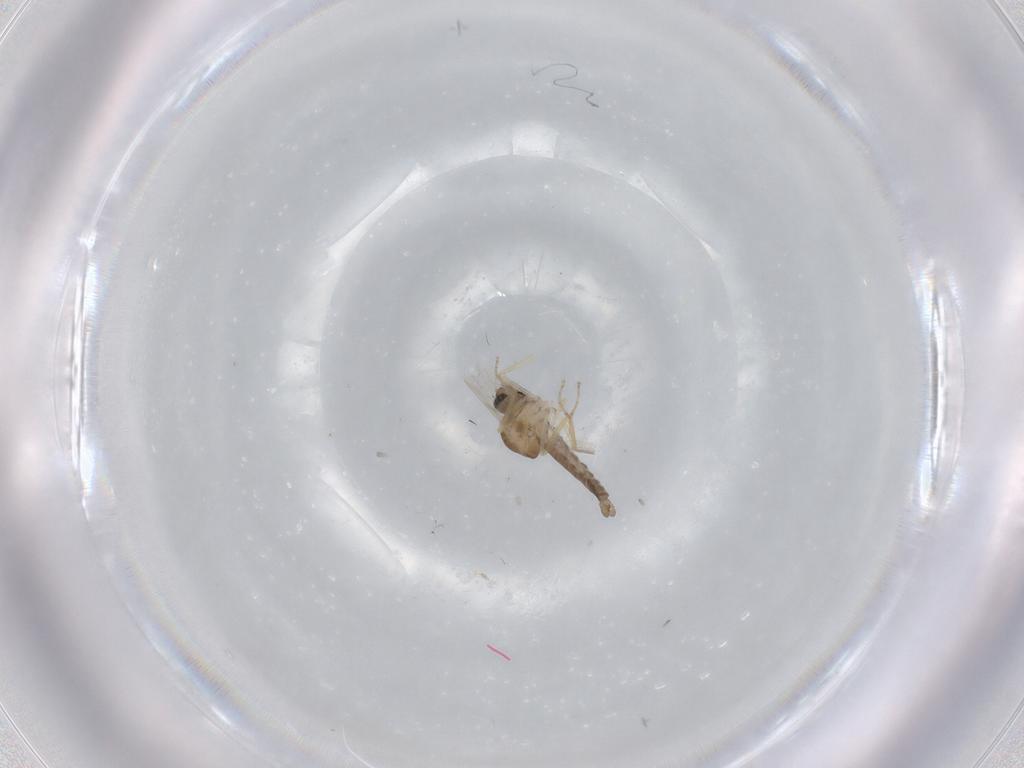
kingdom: Animalia
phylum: Arthropoda
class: Insecta
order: Diptera
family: Ceratopogonidae
